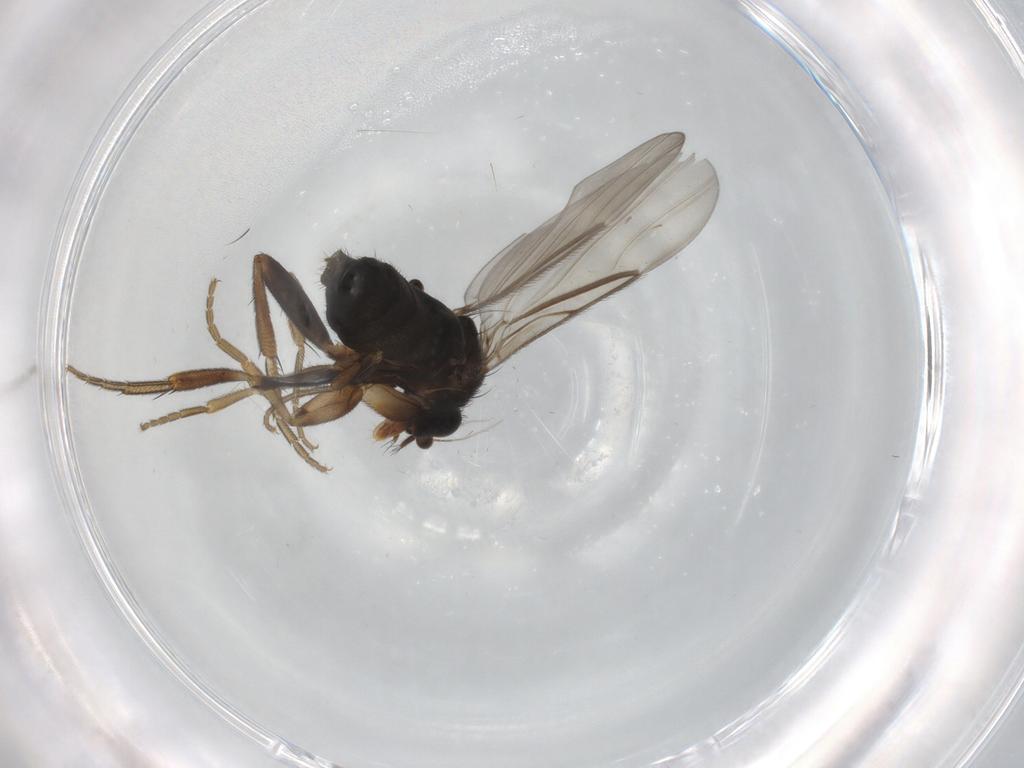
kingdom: Animalia
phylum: Arthropoda
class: Insecta
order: Diptera
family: Phoridae
